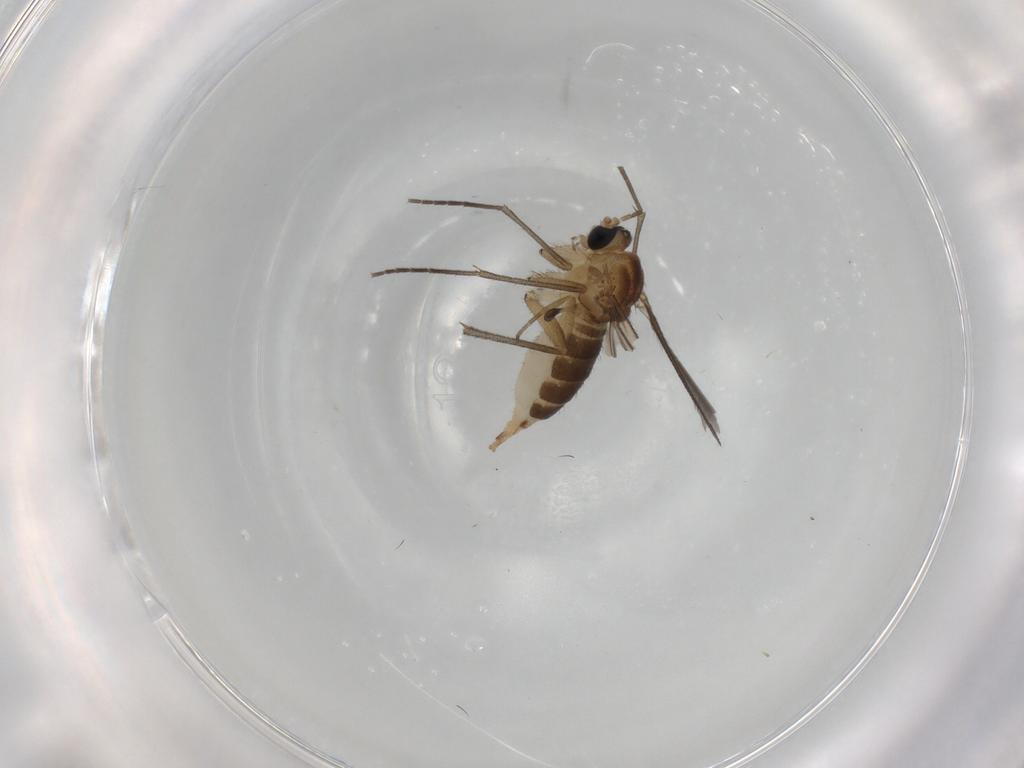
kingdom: Animalia
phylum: Arthropoda
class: Insecta
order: Diptera
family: Sciaridae
